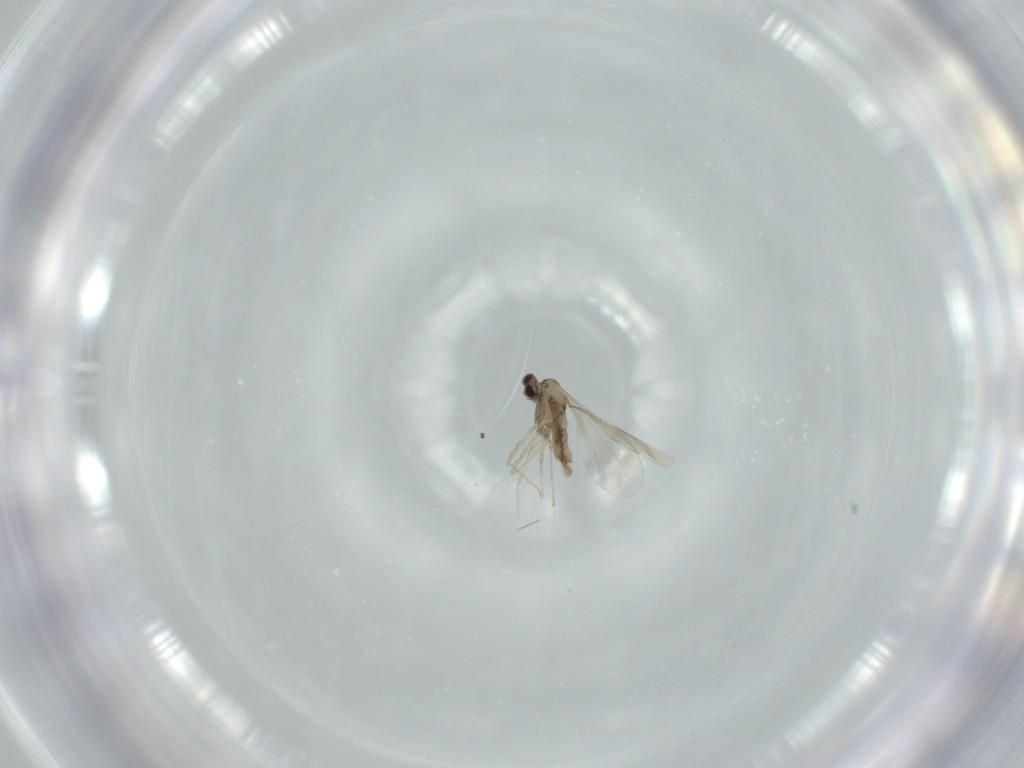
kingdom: Animalia
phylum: Arthropoda
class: Insecta
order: Diptera
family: Cecidomyiidae
